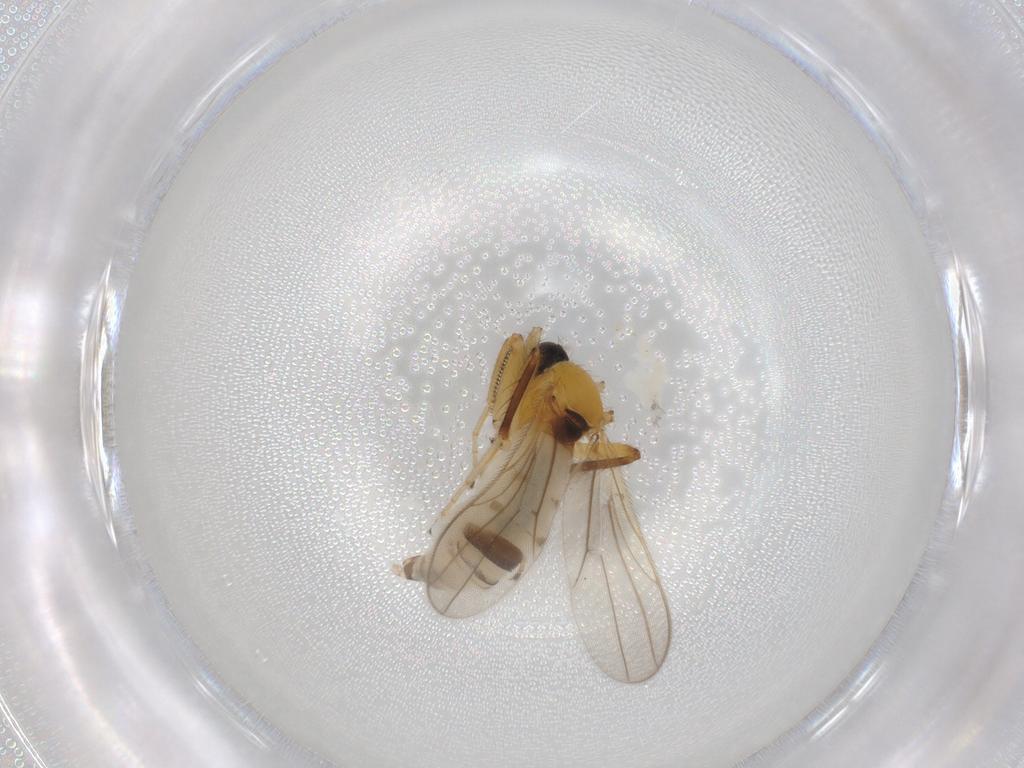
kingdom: Animalia
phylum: Arthropoda
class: Insecta
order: Diptera
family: Hybotidae
